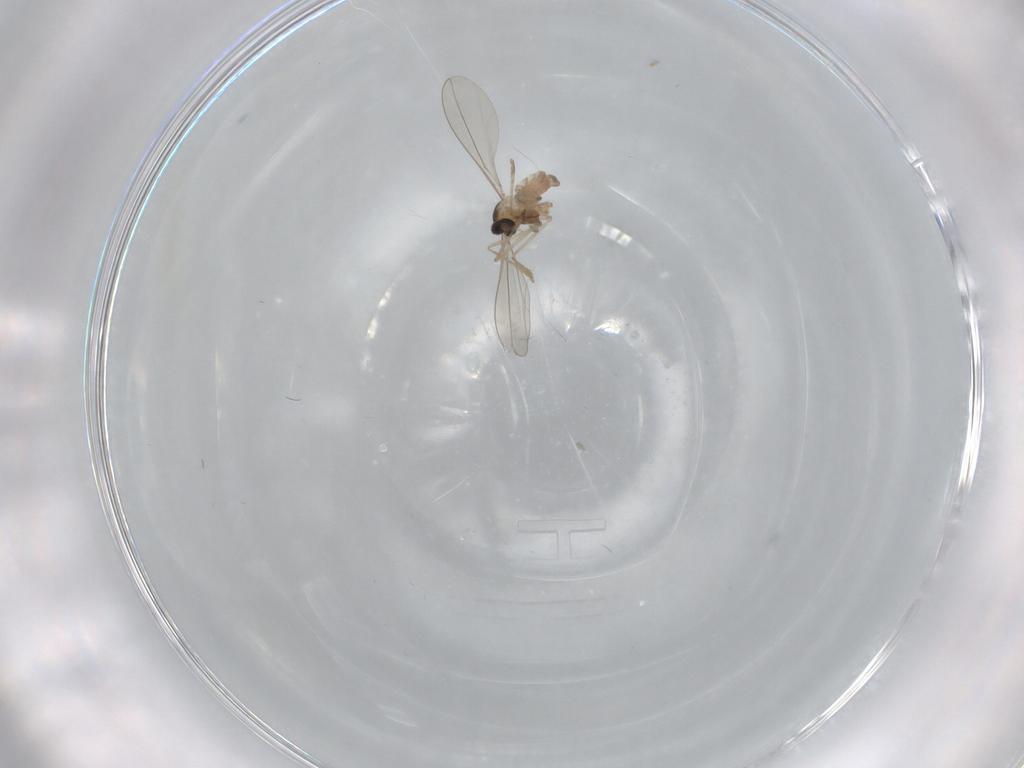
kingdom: Animalia
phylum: Arthropoda
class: Insecta
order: Diptera
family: Cecidomyiidae
